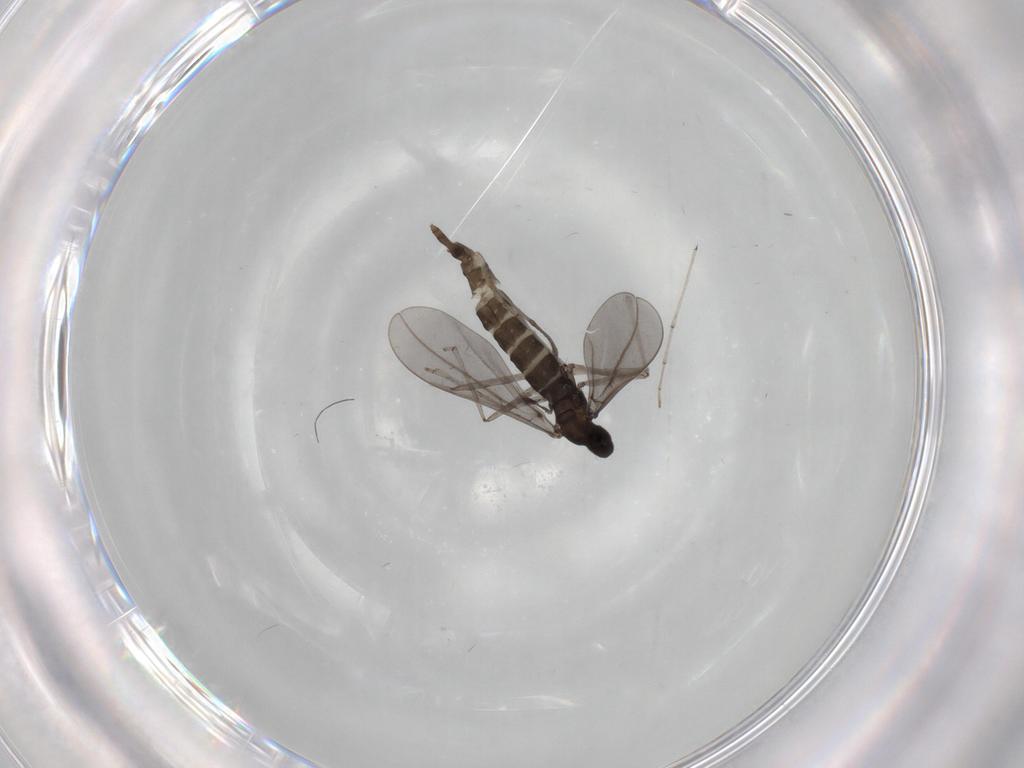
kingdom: Animalia
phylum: Arthropoda
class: Insecta
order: Diptera
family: Cecidomyiidae
